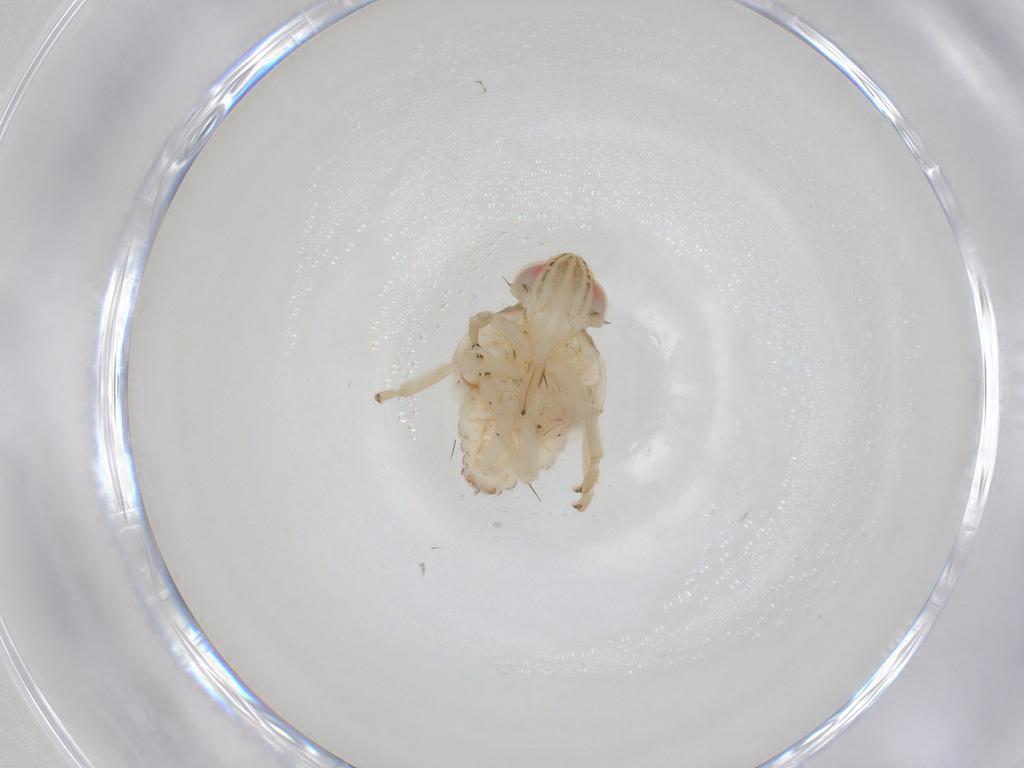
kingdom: Animalia
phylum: Arthropoda
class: Insecta
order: Hemiptera
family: Nogodinidae
